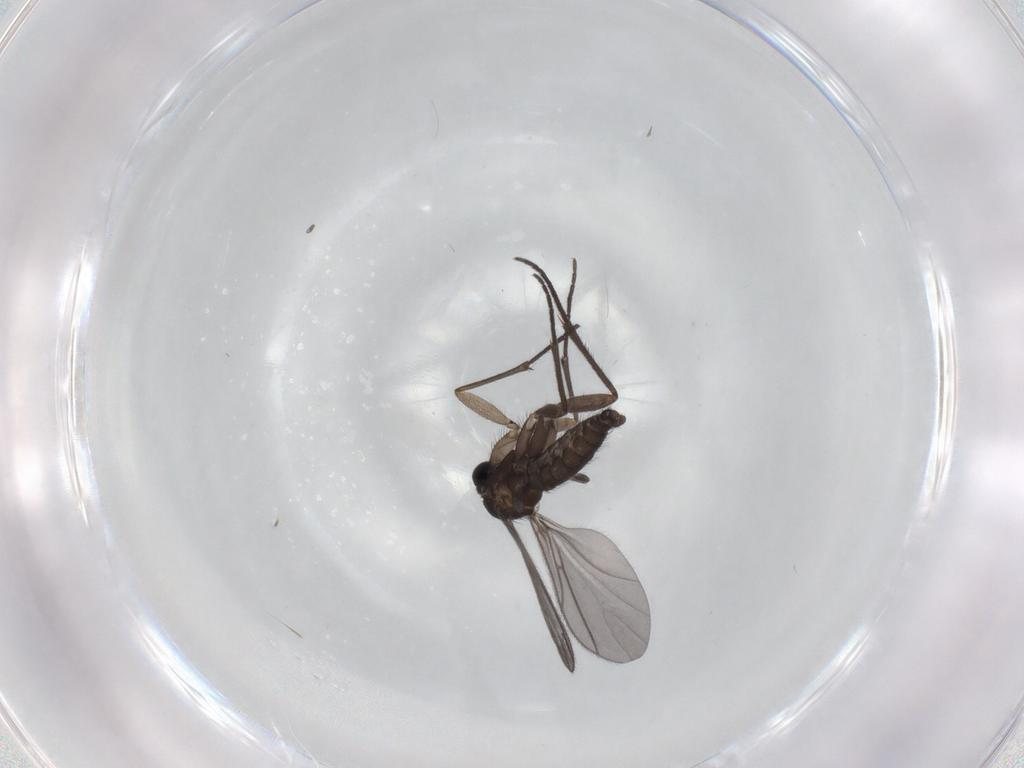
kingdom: Animalia
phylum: Arthropoda
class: Insecta
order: Diptera
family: Sciaridae
